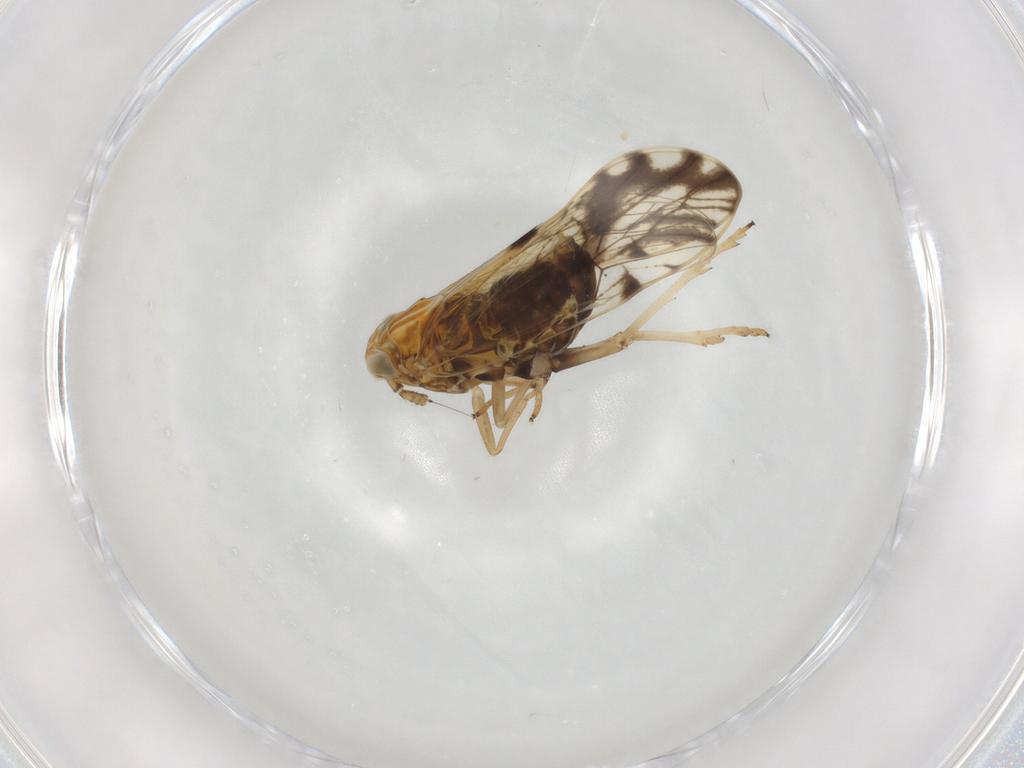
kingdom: Animalia
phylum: Arthropoda
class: Insecta
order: Hemiptera
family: Delphacidae
